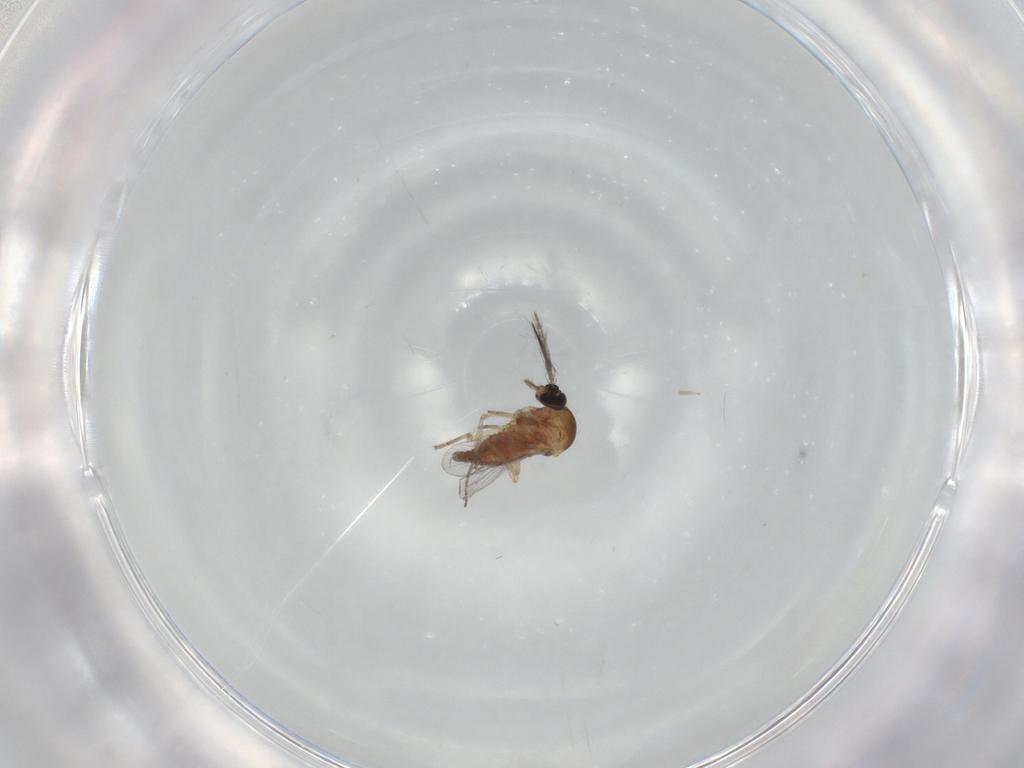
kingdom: Animalia
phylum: Arthropoda
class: Insecta
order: Diptera
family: Ceratopogonidae
